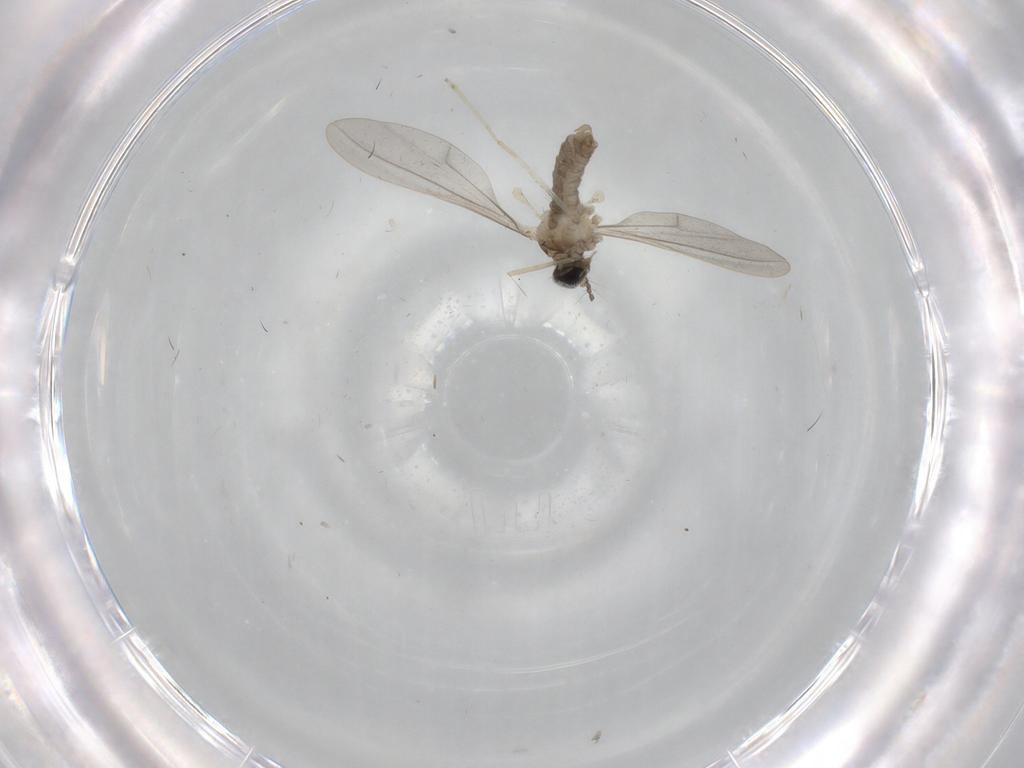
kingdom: Animalia
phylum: Arthropoda
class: Insecta
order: Diptera
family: Cecidomyiidae
